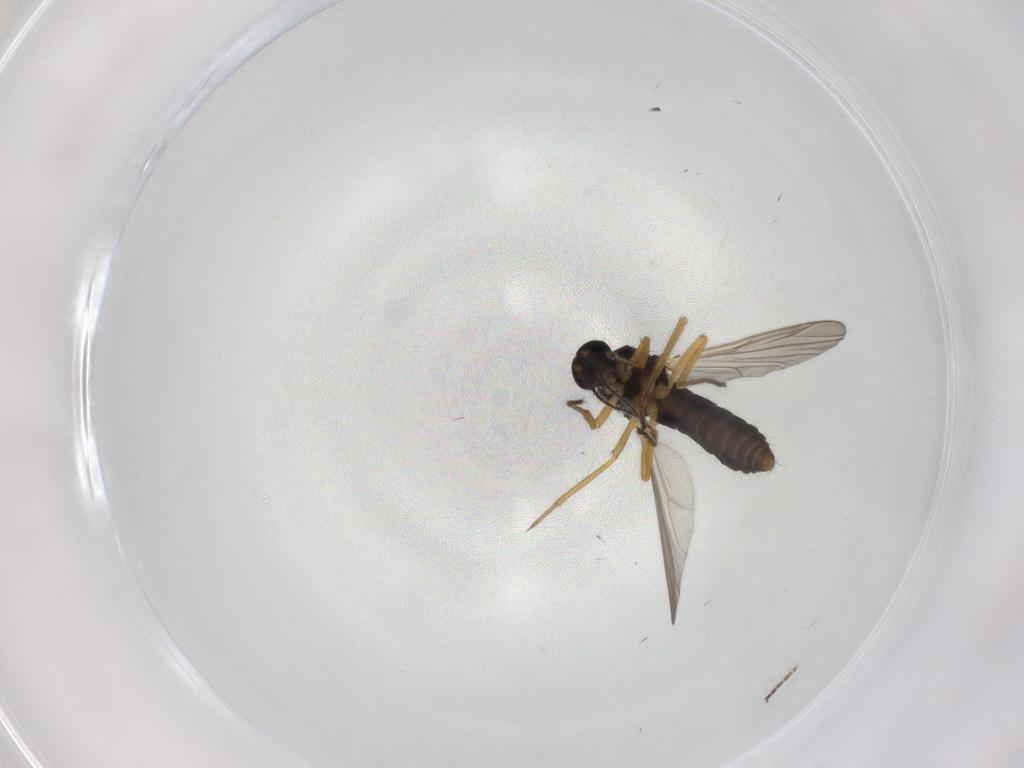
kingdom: Animalia
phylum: Arthropoda
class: Insecta
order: Diptera
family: Ceratopogonidae
